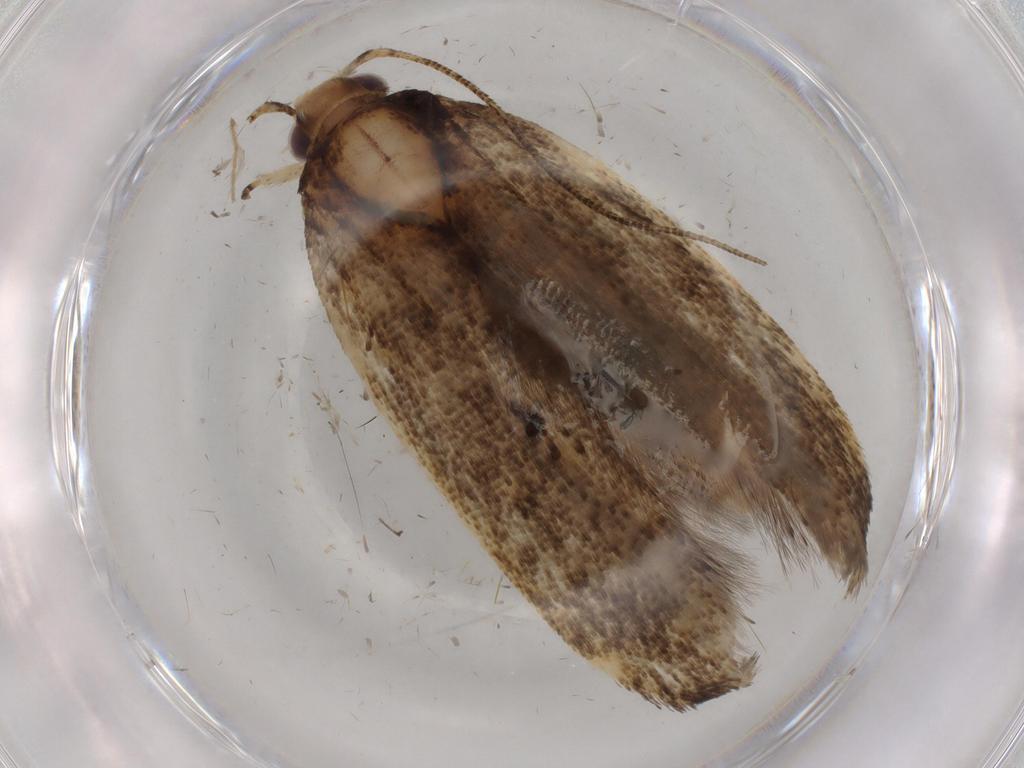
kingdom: Animalia
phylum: Arthropoda
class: Insecta
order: Lepidoptera
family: Gelechiidae
